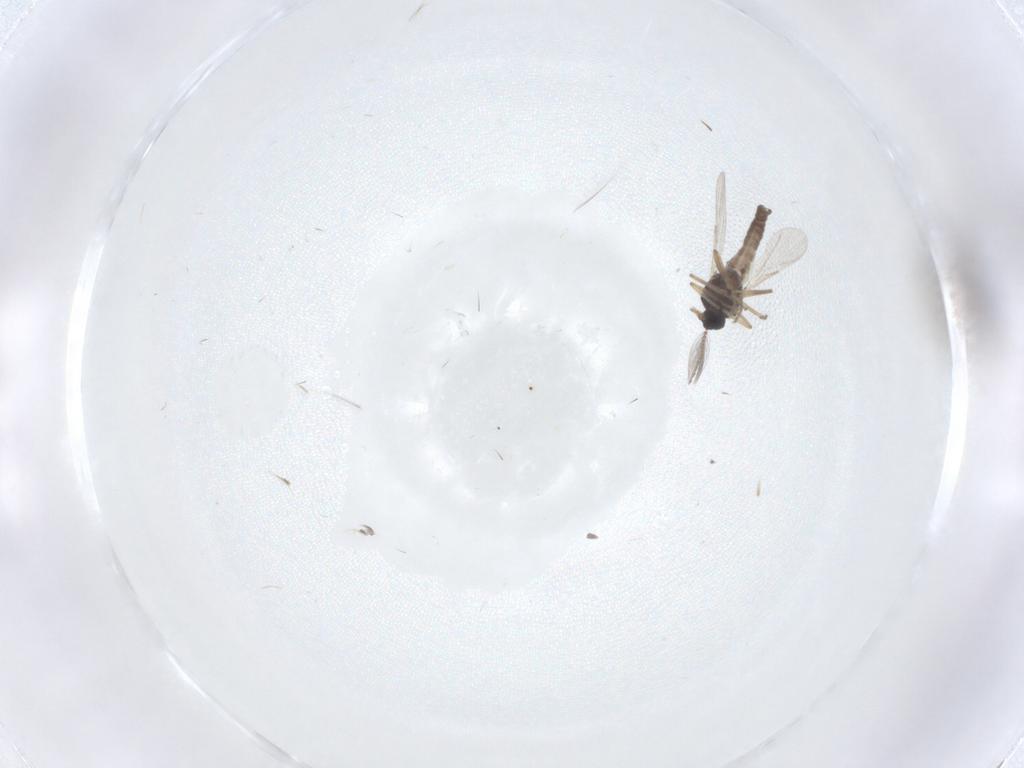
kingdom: Animalia
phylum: Arthropoda
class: Insecta
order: Diptera
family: Ceratopogonidae
